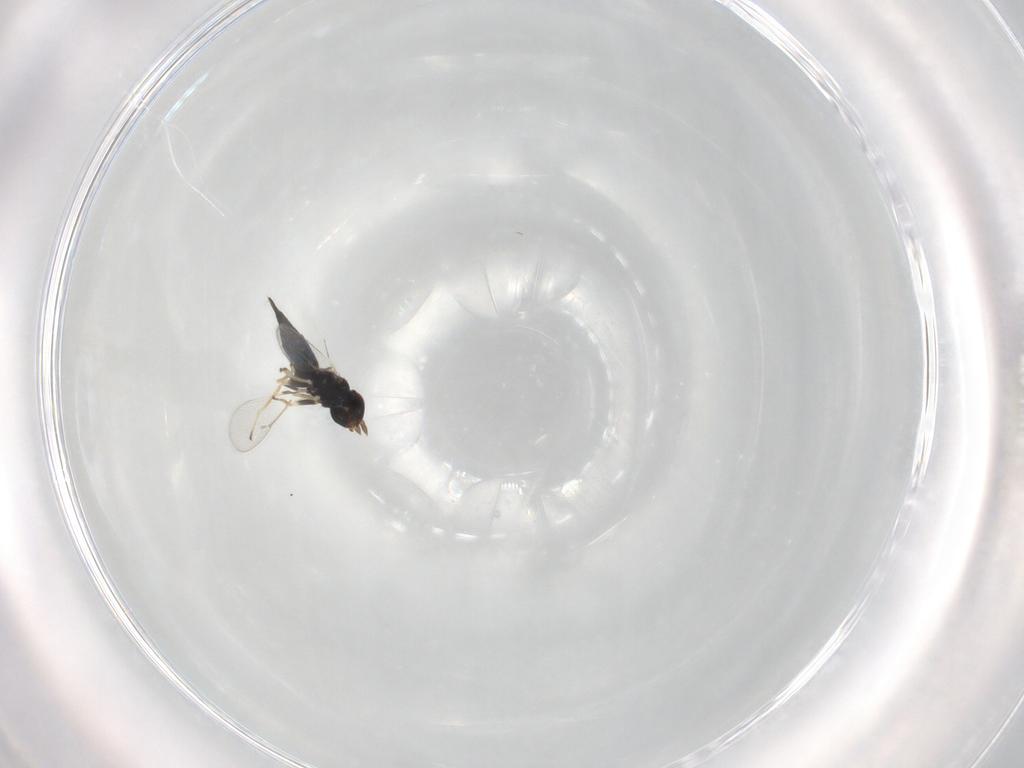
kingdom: Animalia
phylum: Arthropoda
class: Insecta
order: Hymenoptera
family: Eulophidae
